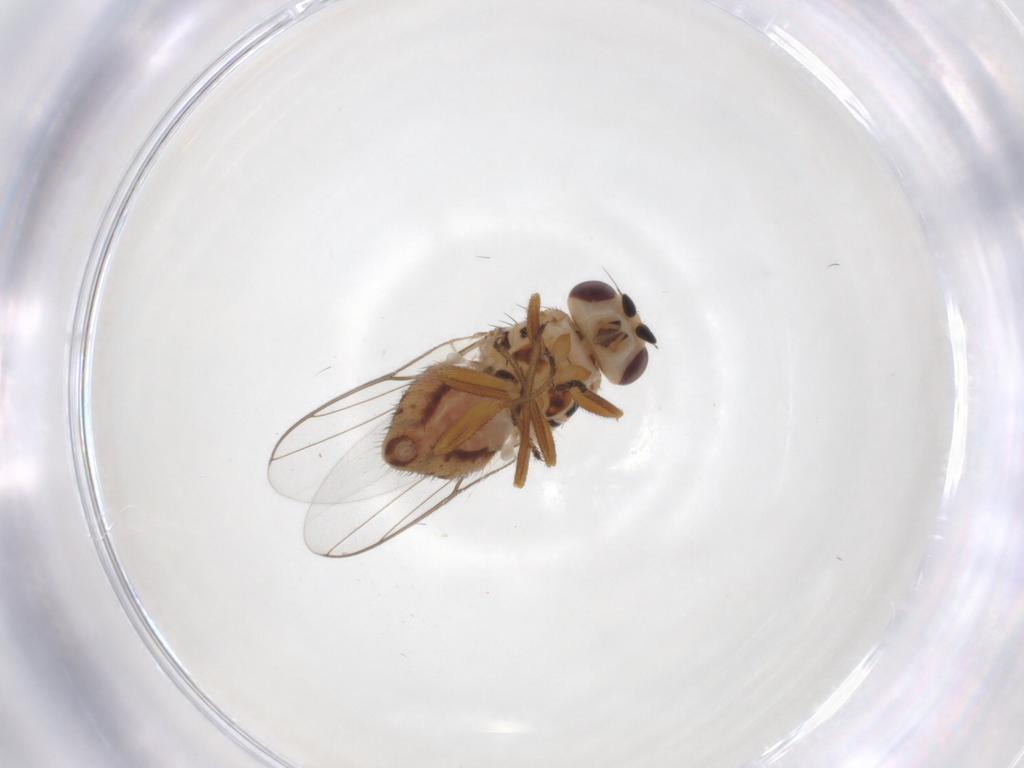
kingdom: Animalia
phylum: Arthropoda
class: Insecta
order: Diptera
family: Chloropidae
